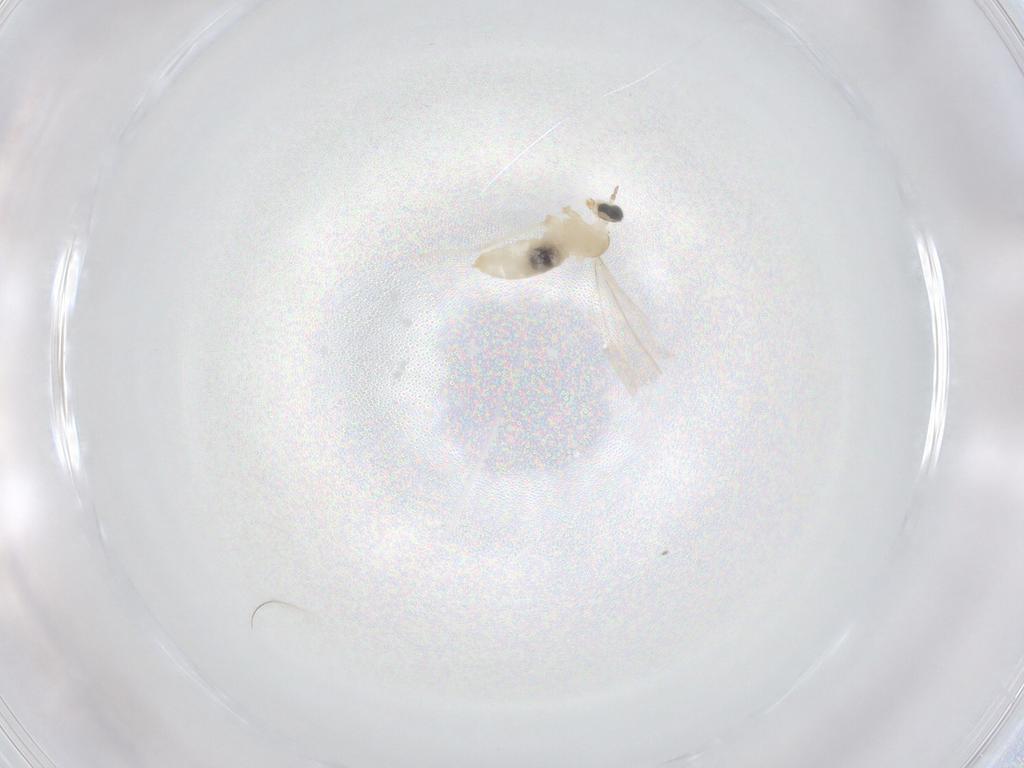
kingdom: Animalia
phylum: Arthropoda
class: Insecta
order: Diptera
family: Cecidomyiidae
